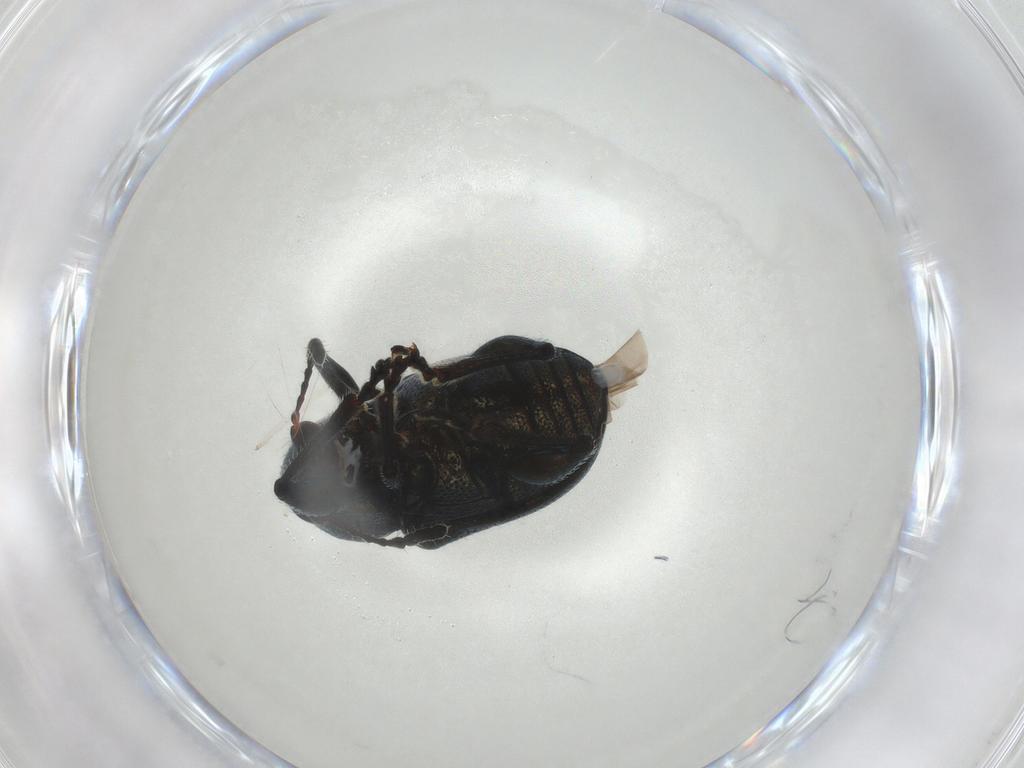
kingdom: Animalia
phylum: Arthropoda
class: Insecta
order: Coleoptera
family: Chrysomelidae
